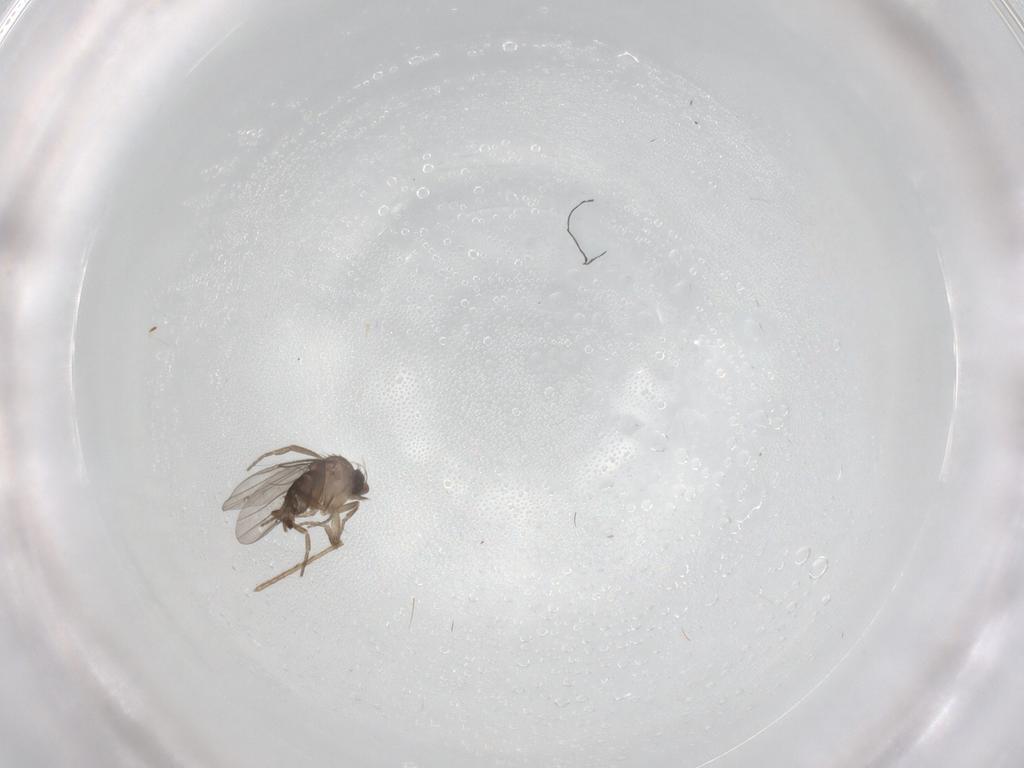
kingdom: Animalia
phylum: Arthropoda
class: Insecta
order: Diptera
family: Psychodidae
